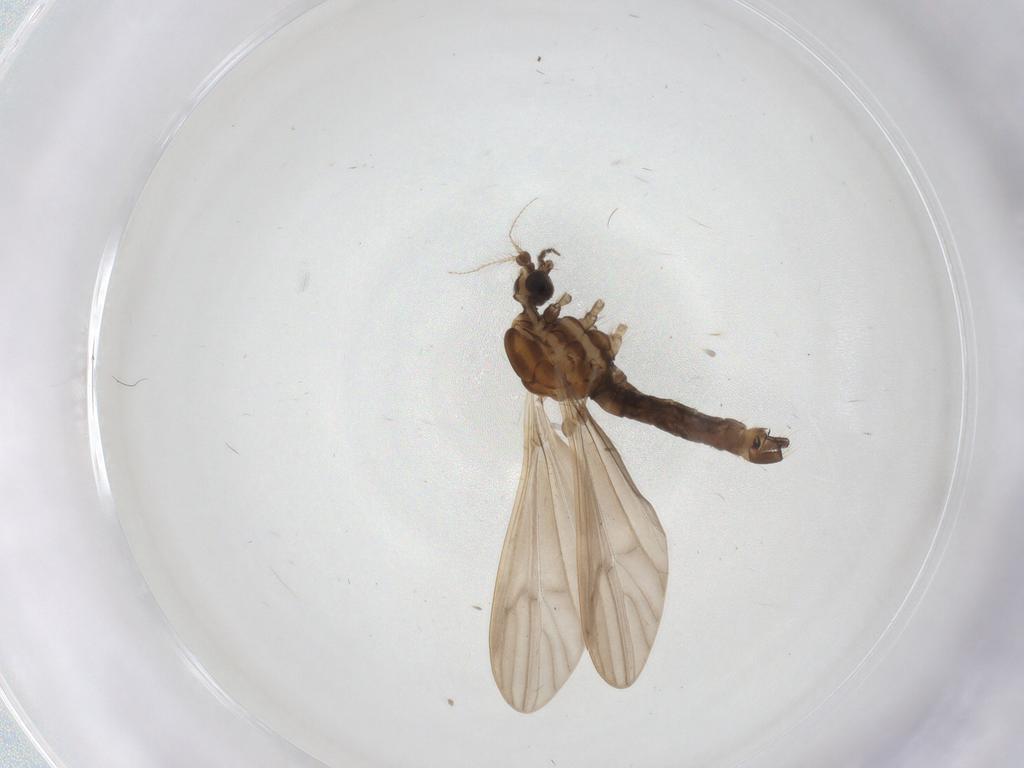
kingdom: Animalia
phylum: Arthropoda
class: Insecta
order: Diptera
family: Limoniidae
